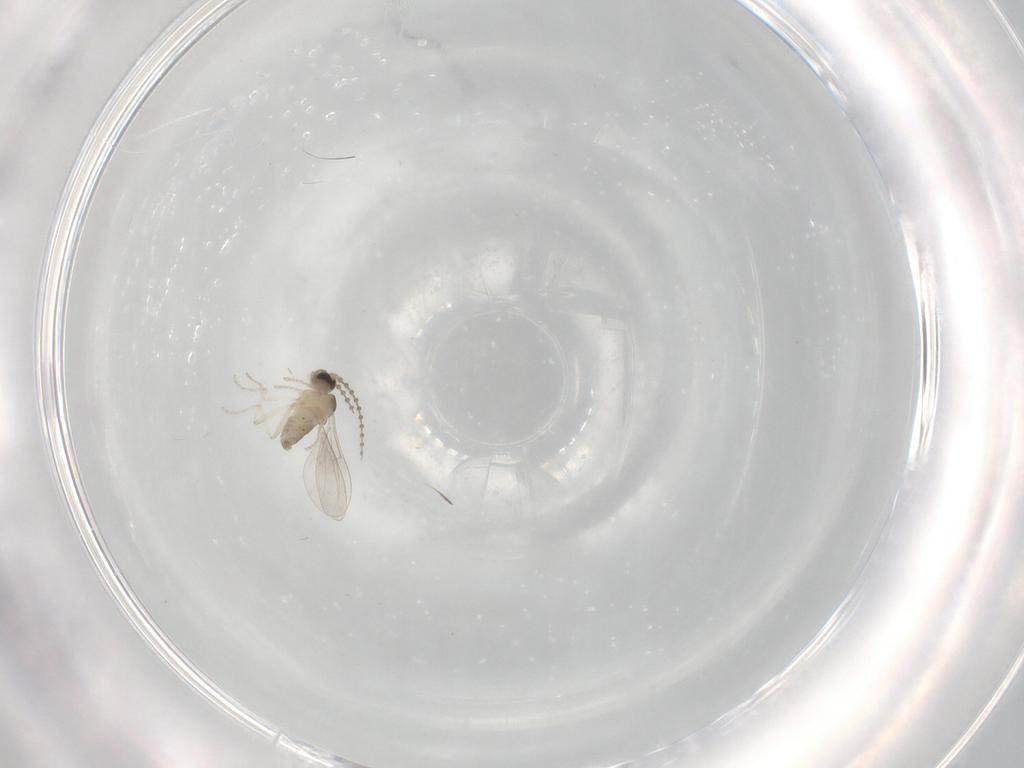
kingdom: Animalia
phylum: Arthropoda
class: Insecta
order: Diptera
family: Cecidomyiidae
